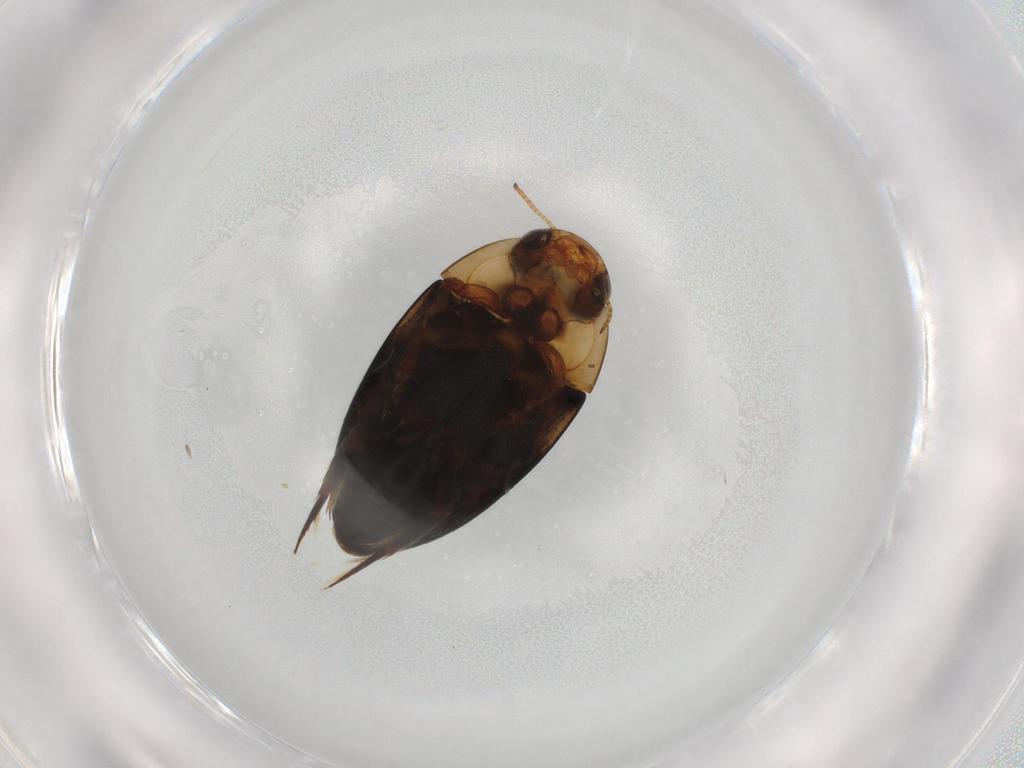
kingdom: Animalia
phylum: Arthropoda
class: Insecta
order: Coleoptera
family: Noteridae
